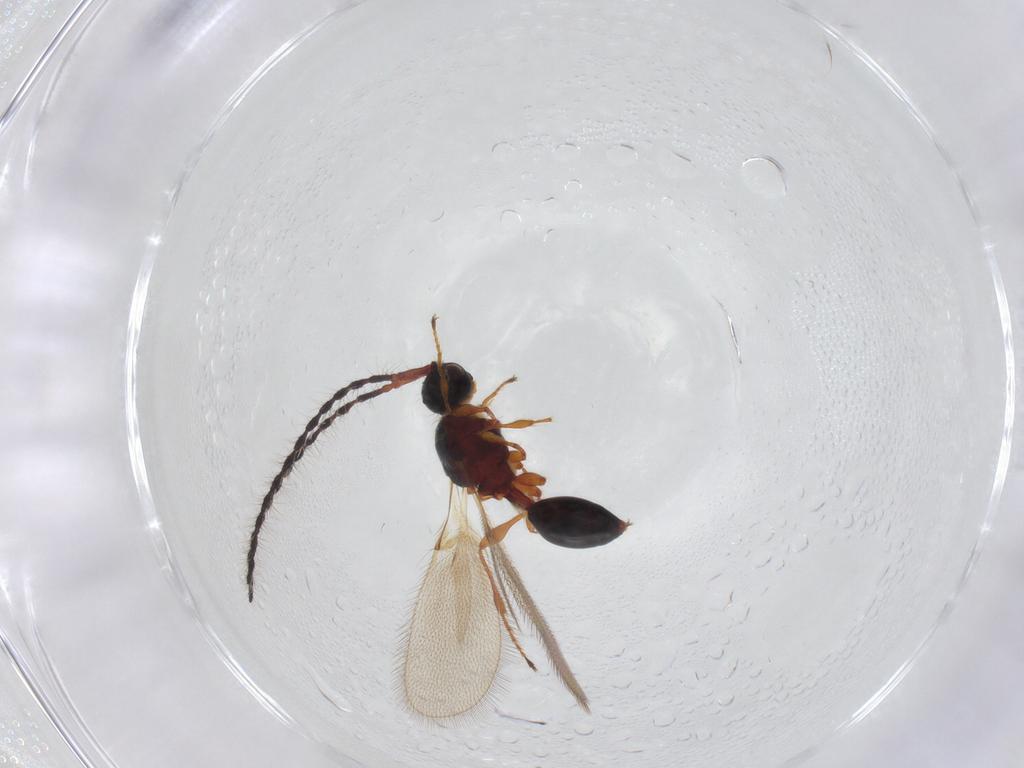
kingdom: Animalia
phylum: Arthropoda
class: Insecta
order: Hymenoptera
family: Diapriidae
